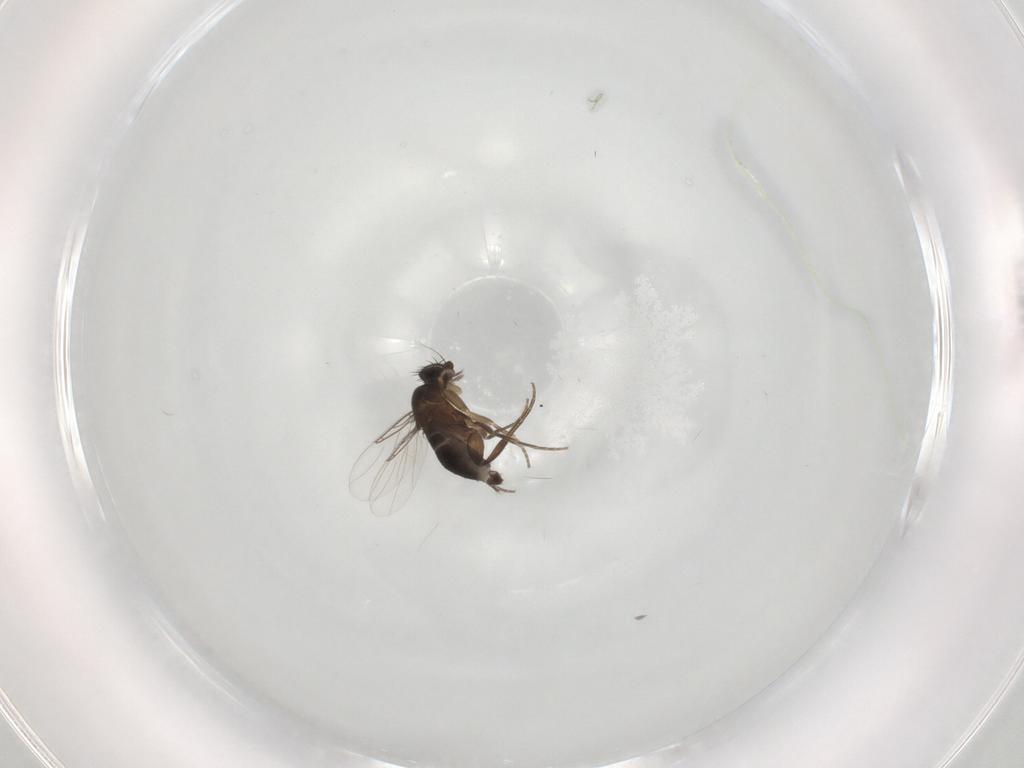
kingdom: Animalia
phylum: Arthropoda
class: Insecta
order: Diptera
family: Phoridae
